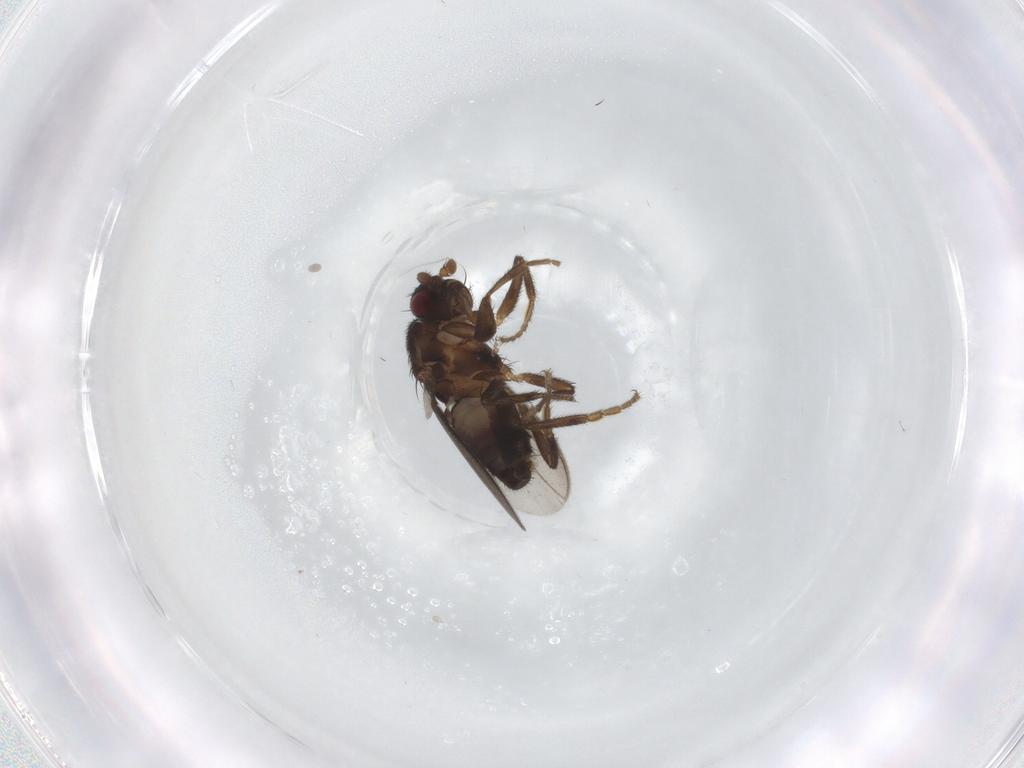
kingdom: Animalia
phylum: Arthropoda
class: Insecta
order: Diptera
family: Sphaeroceridae
